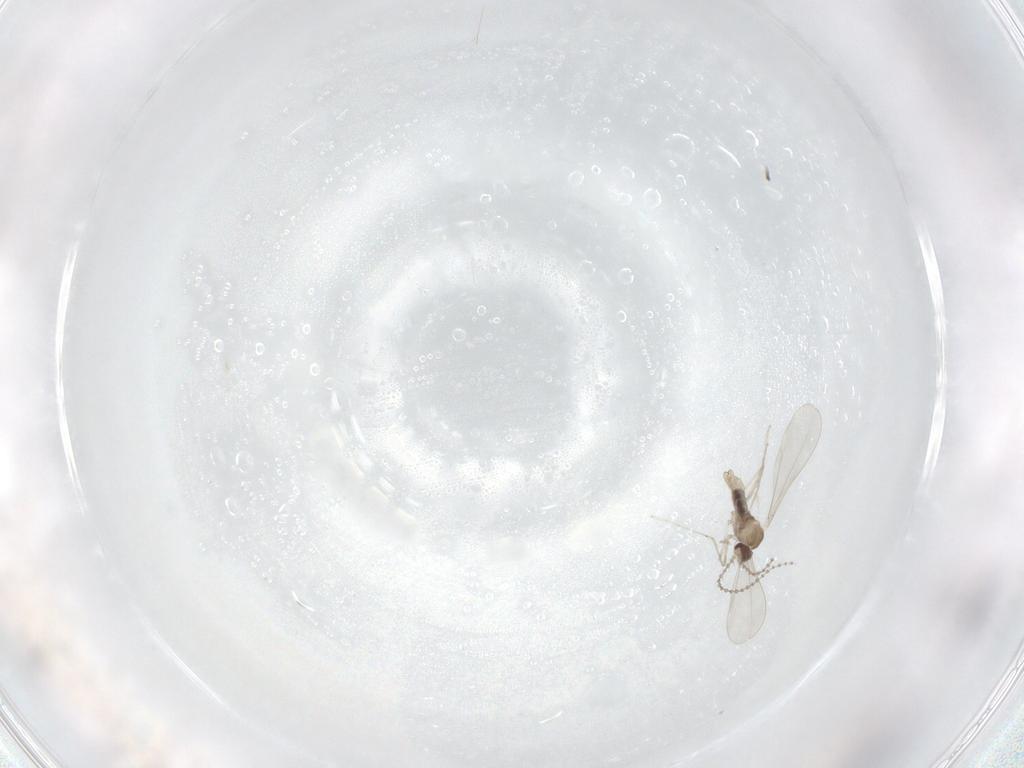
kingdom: Animalia
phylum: Arthropoda
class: Insecta
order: Diptera
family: Cecidomyiidae
